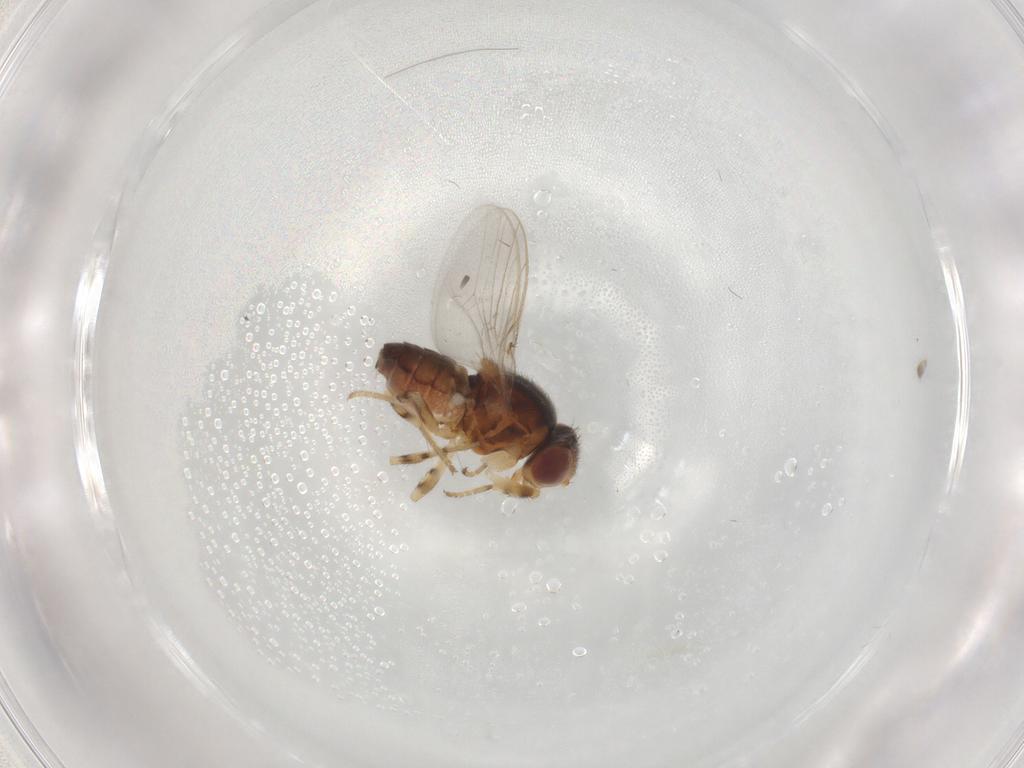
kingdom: Animalia
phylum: Arthropoda
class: Insecta
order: Diptera
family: Chloropidae
